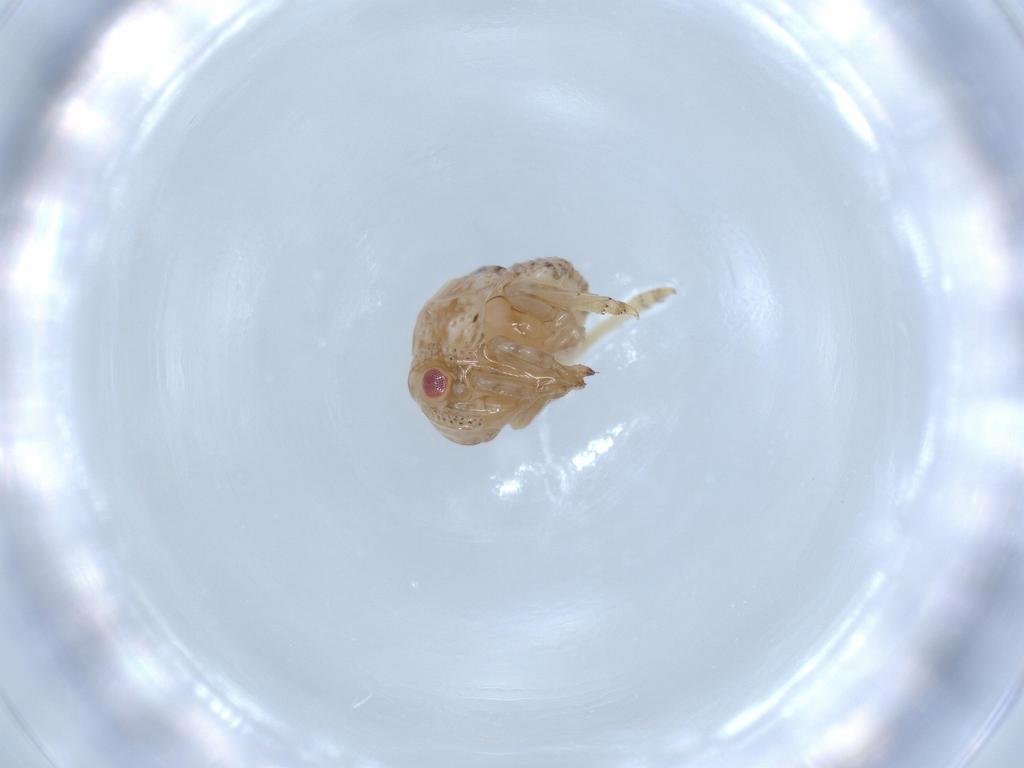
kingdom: Animalia
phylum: Arthropoda
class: Insecta
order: Hemiptera
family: Acanaloniidae
